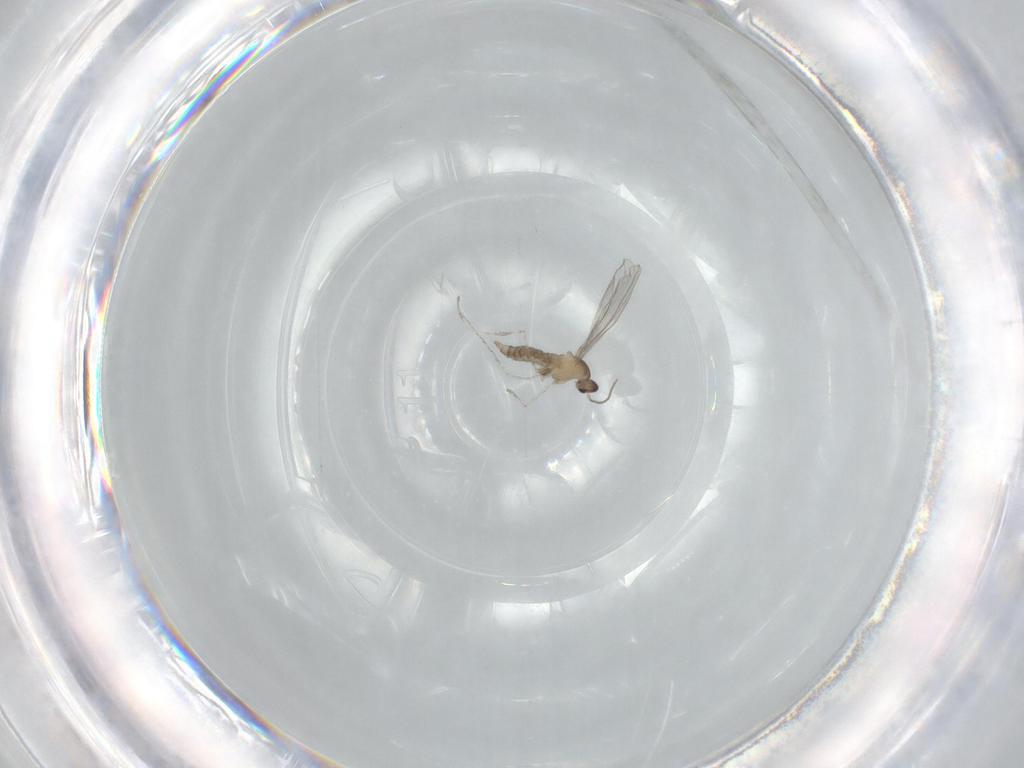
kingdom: Animalia
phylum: Arthropoda
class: Insecta
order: Diptera
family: Cecidomyiidae
